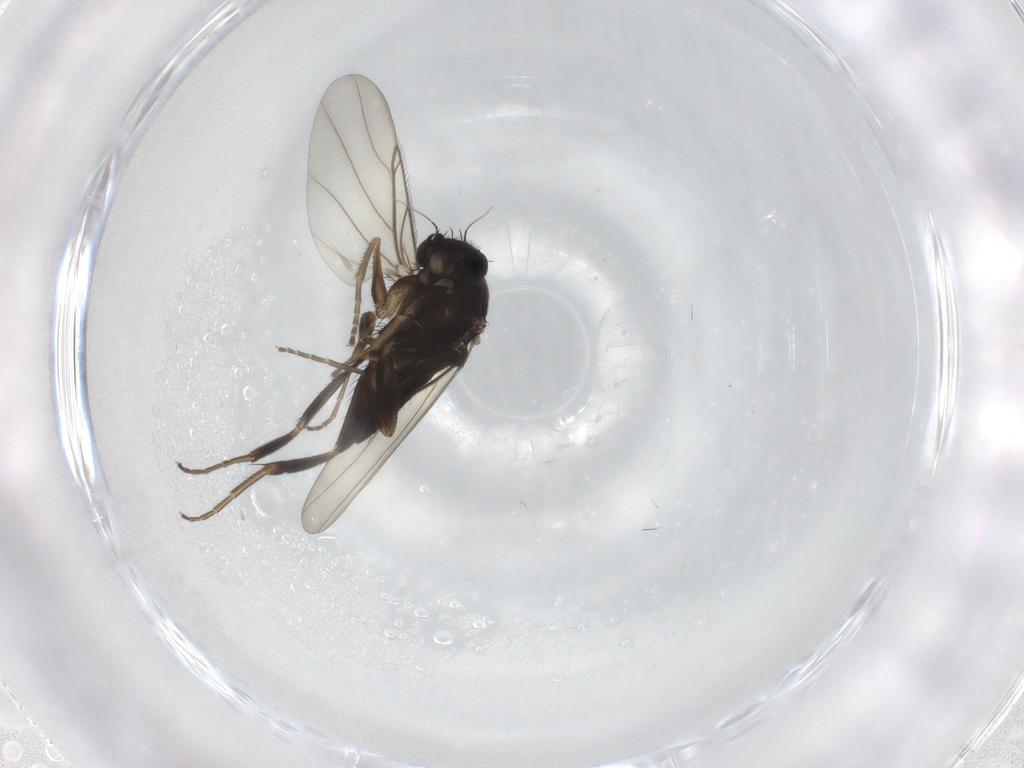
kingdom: Animalia
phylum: Arthropoda
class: Insecta
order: Diptera
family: Phoridae
